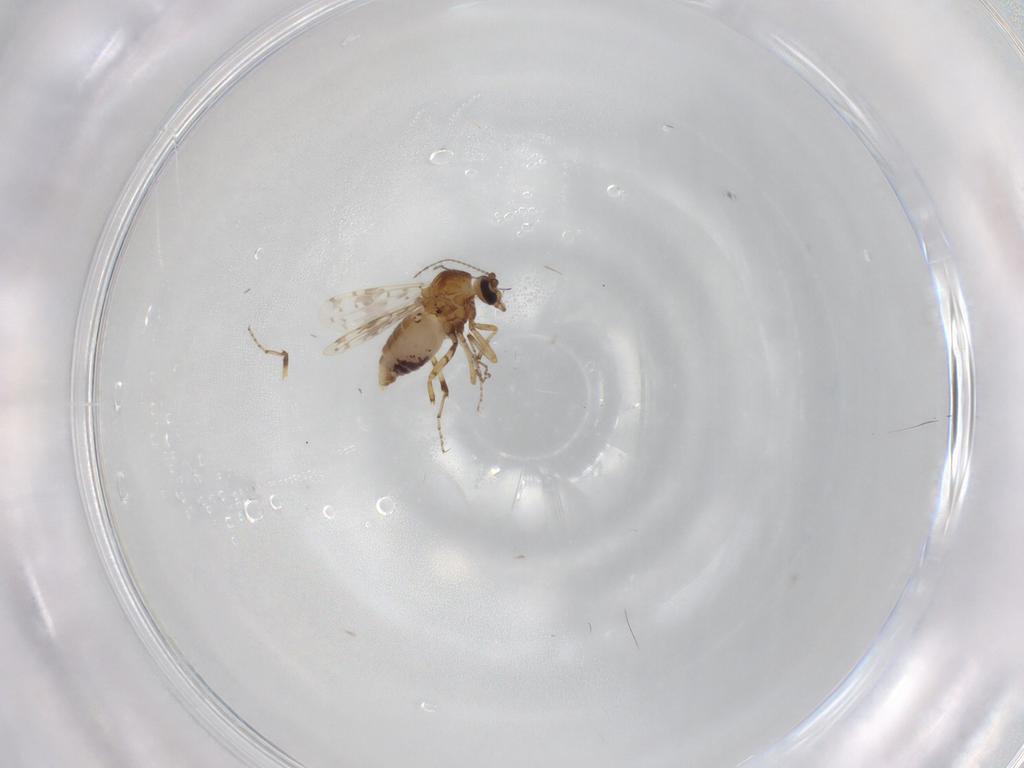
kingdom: Animalia
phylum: Arthropoda
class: Insecta
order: Diptera
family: Ceratopogonidae
